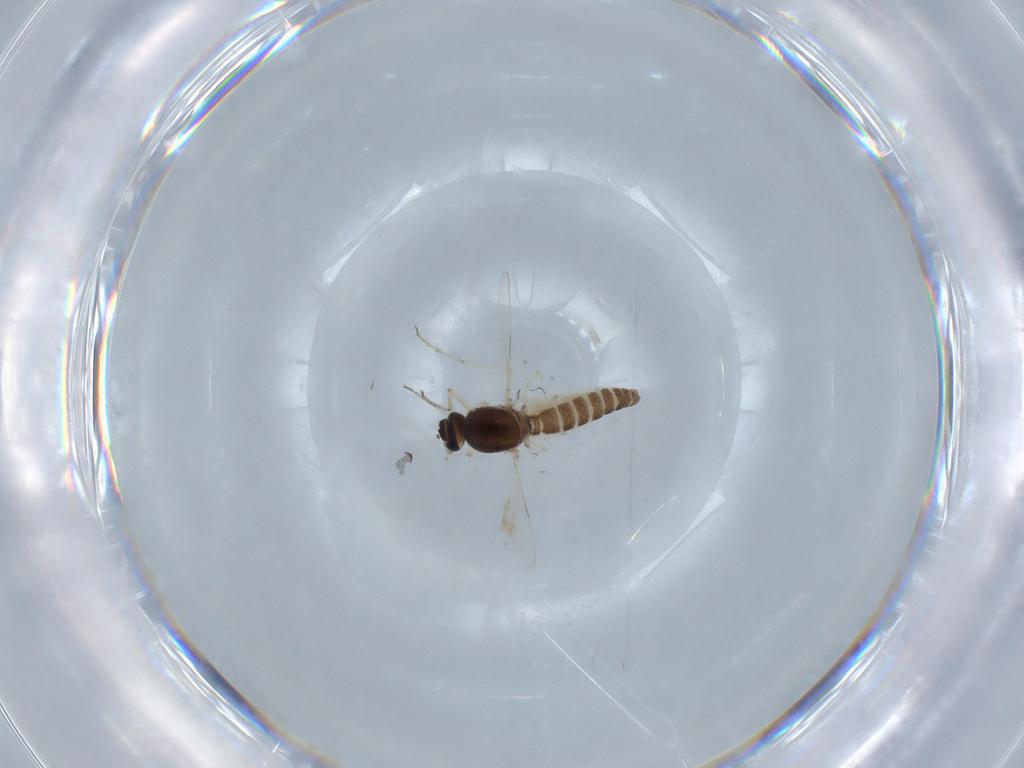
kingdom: Animalia
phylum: Arthropoda
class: Insecta
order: Diptera
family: Ceratopogonidae
